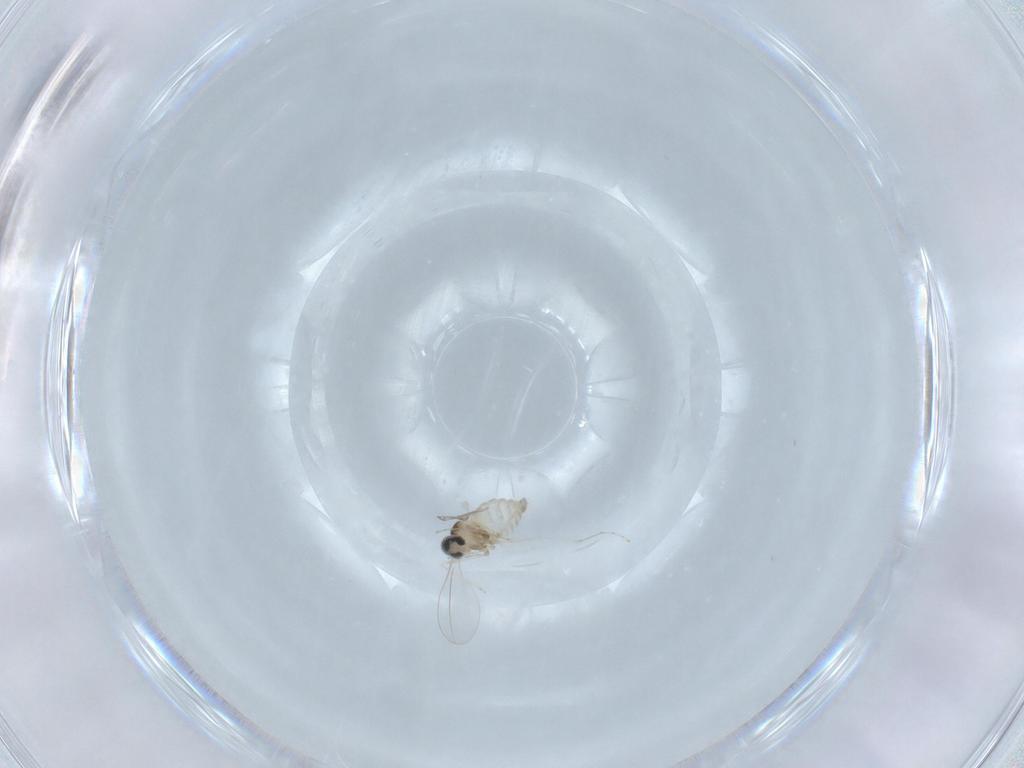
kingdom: Animalia
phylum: Arthropoda
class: Insecta
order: Diptera
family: Cecidomyiidae
